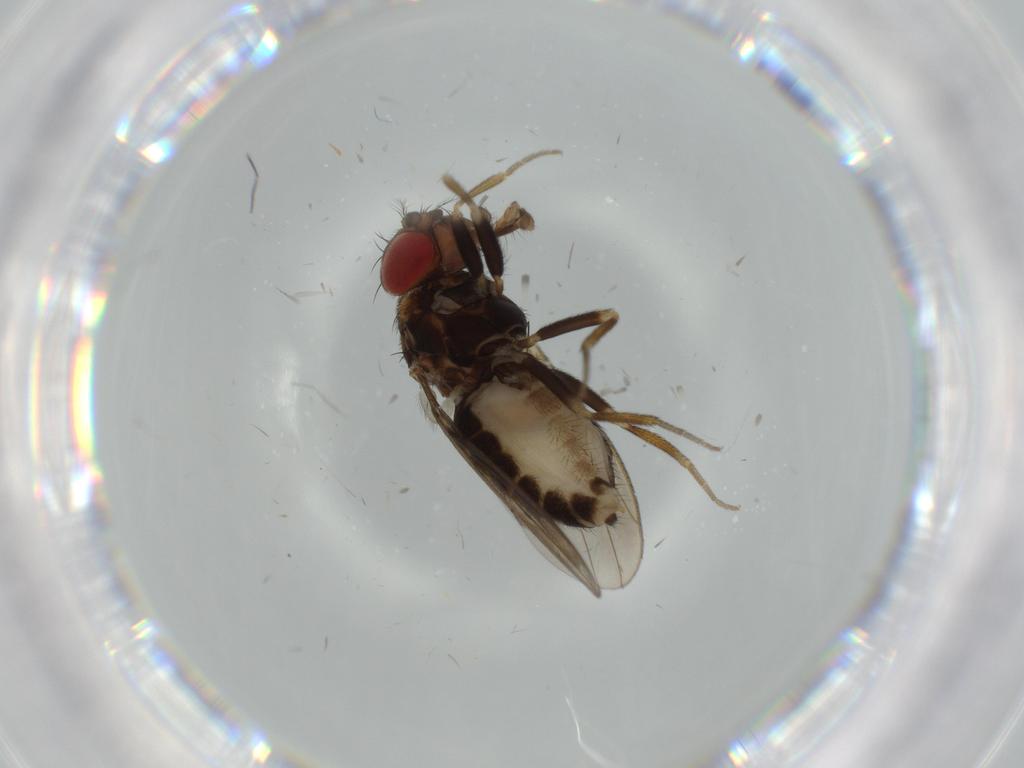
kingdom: Animalia
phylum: Arthropoda
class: Insecta
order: Diptera
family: Drosophilidae
